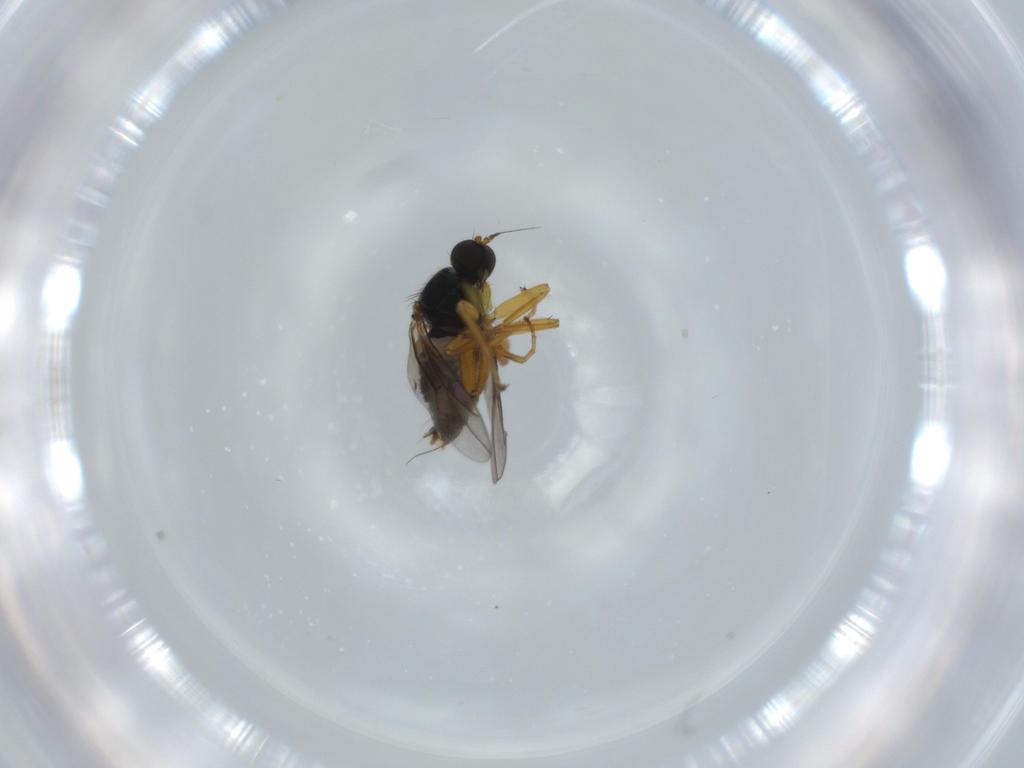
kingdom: Animalia
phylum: Arthropoda
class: Insecta
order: Diptera
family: Hybotidae
